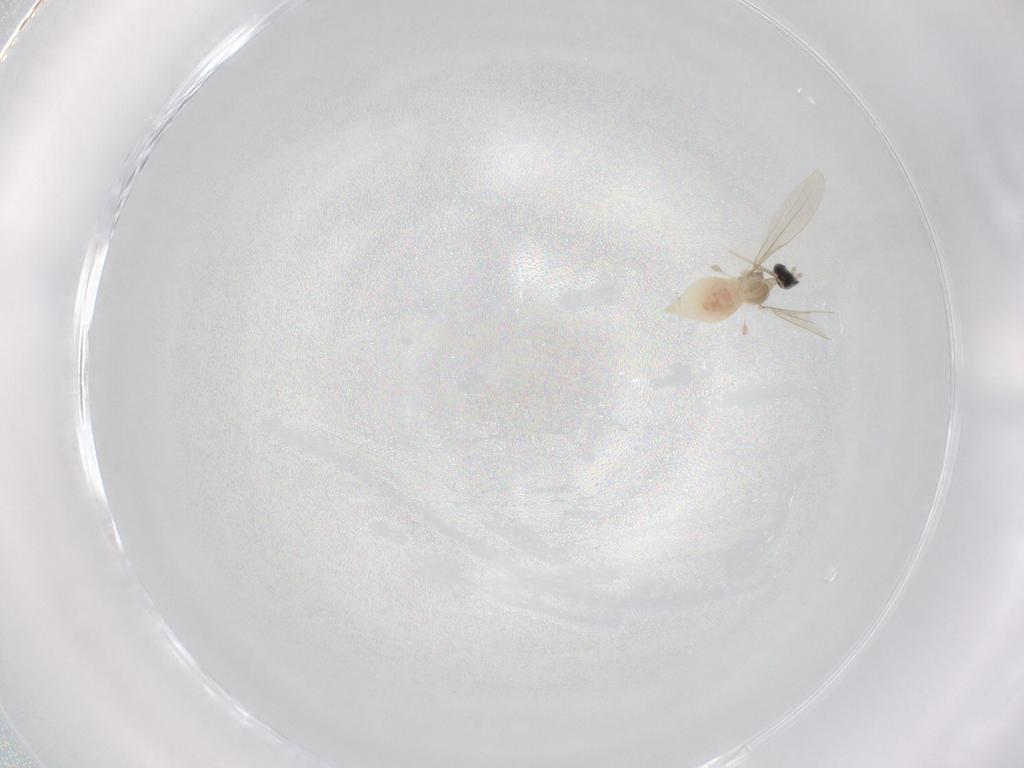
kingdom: Animalia
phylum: Arthropoda
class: Insecta
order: Diptera
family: Cecidomyiidae
